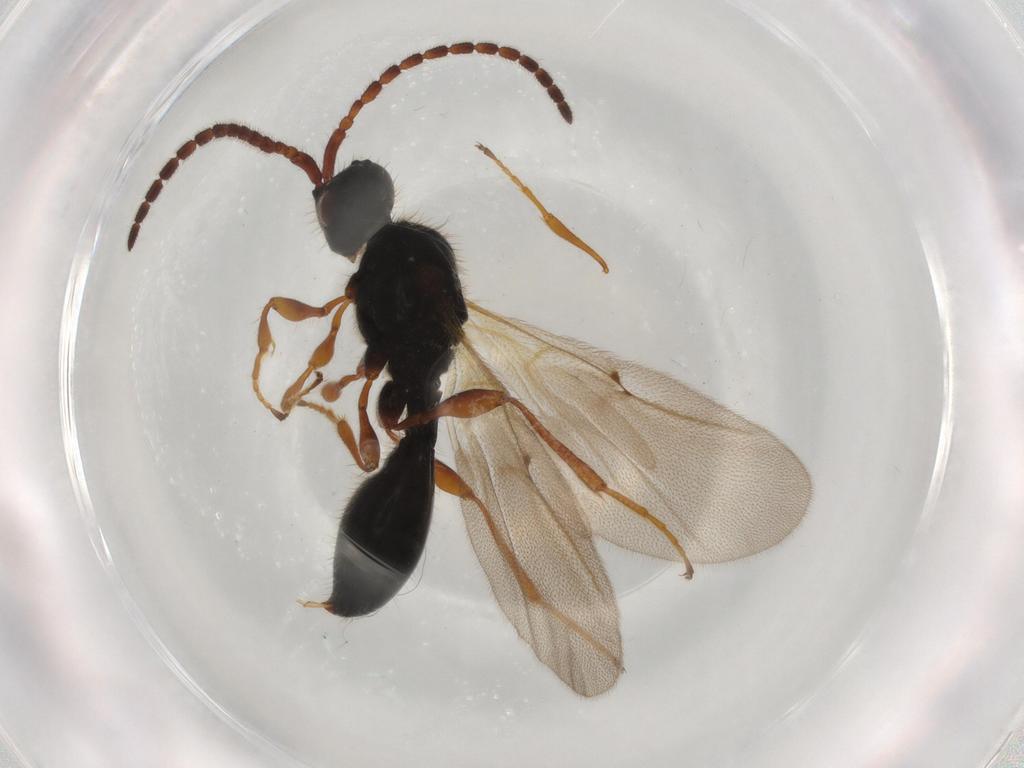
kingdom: Animalia
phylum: Arthropoda
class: Insecta
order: Hymenoptera
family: Diapriidae
